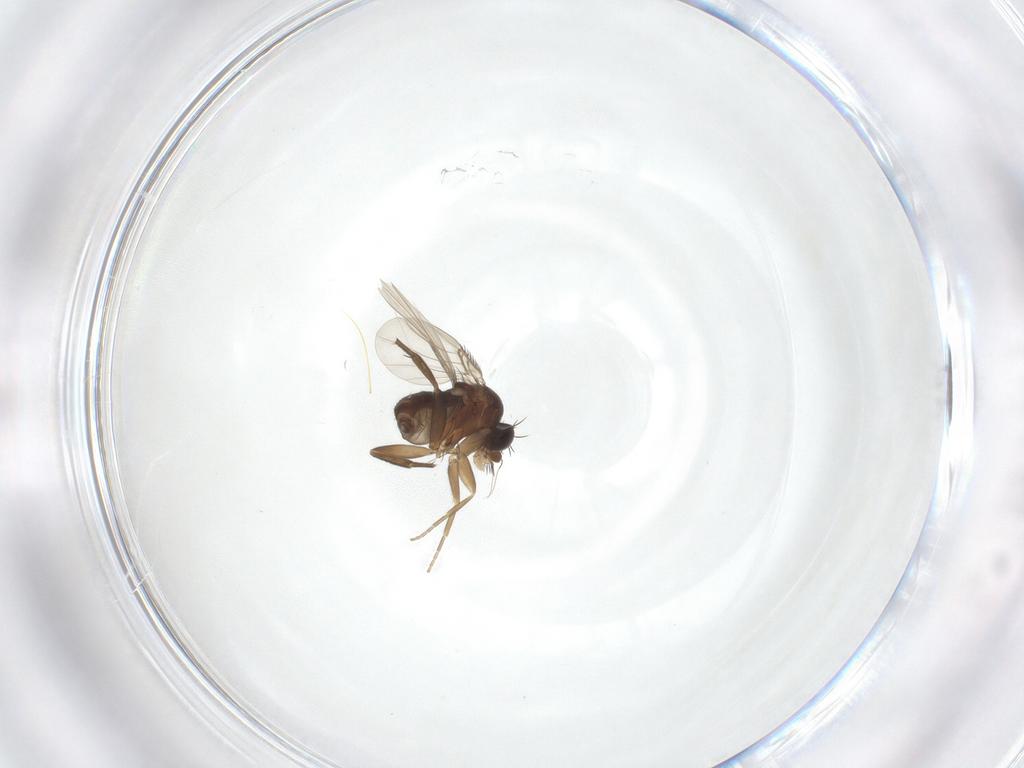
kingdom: Animalia
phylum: Arthropoda
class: Insecta
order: Diptera
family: Phoridae
